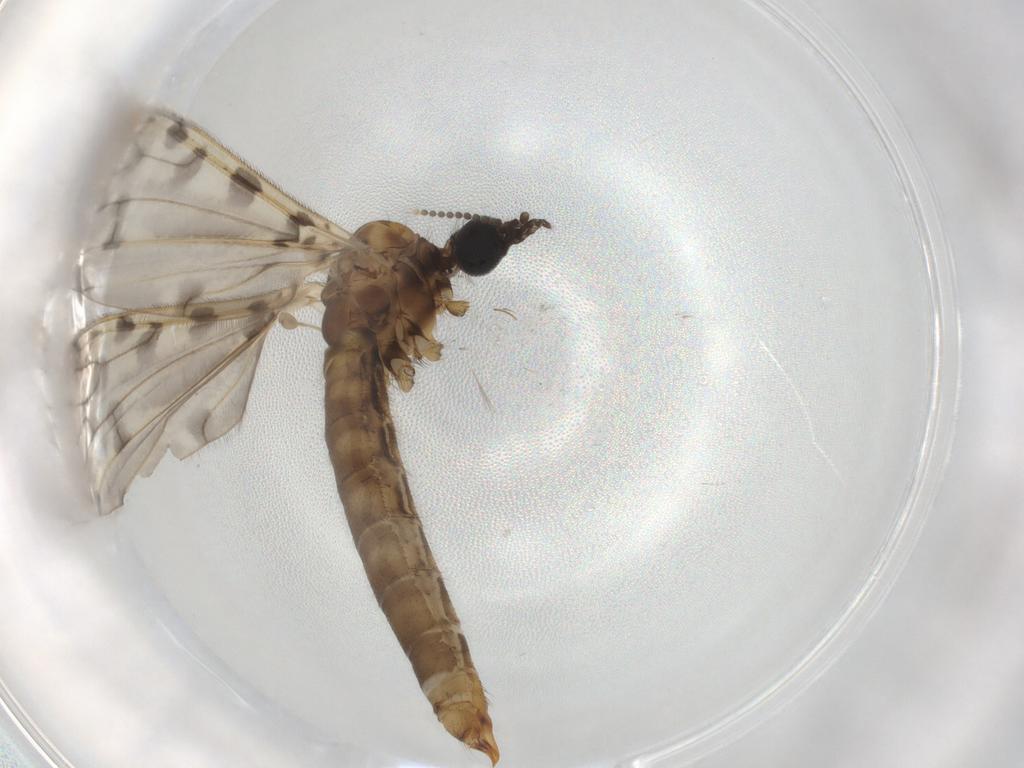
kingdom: Animalia
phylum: Arthropoda
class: Insecta
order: Diptera
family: Limoniidae
